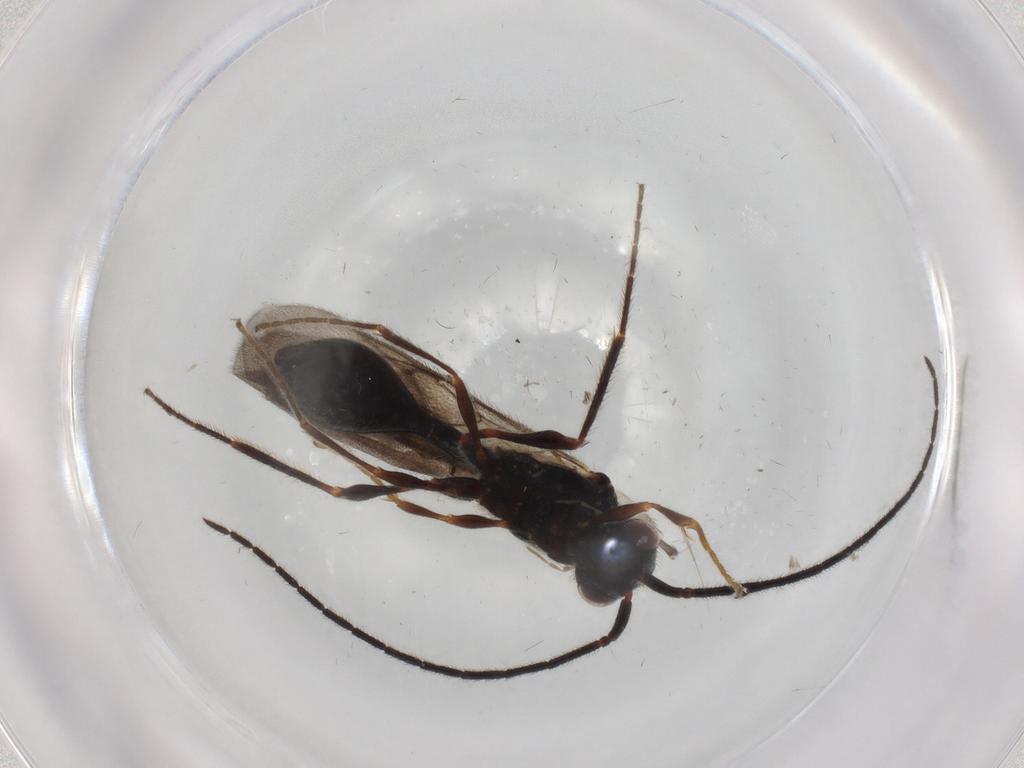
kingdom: Animalia
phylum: Arthropoda
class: Insecta
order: Hymenoptera
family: Diapriidae
